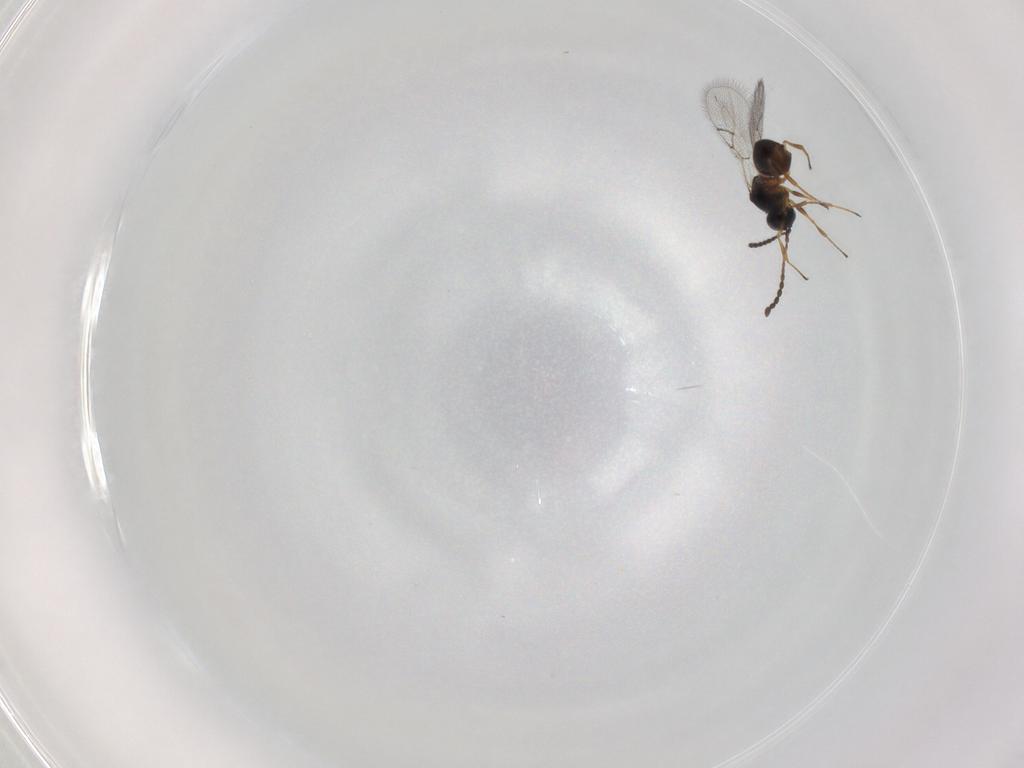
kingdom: Animalia
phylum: Arthropoda
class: Insecta
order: Hymenoptera
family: Figitidae
